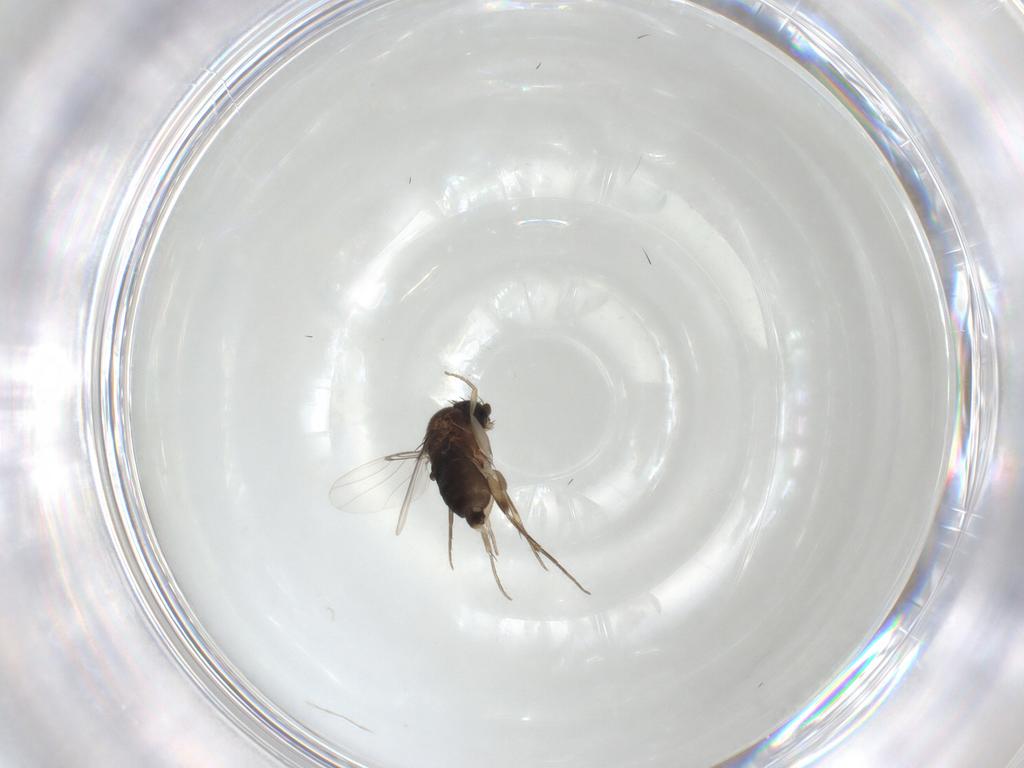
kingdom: Animalia
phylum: Arthropoda
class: Insecta
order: Diptera
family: Phoridae
